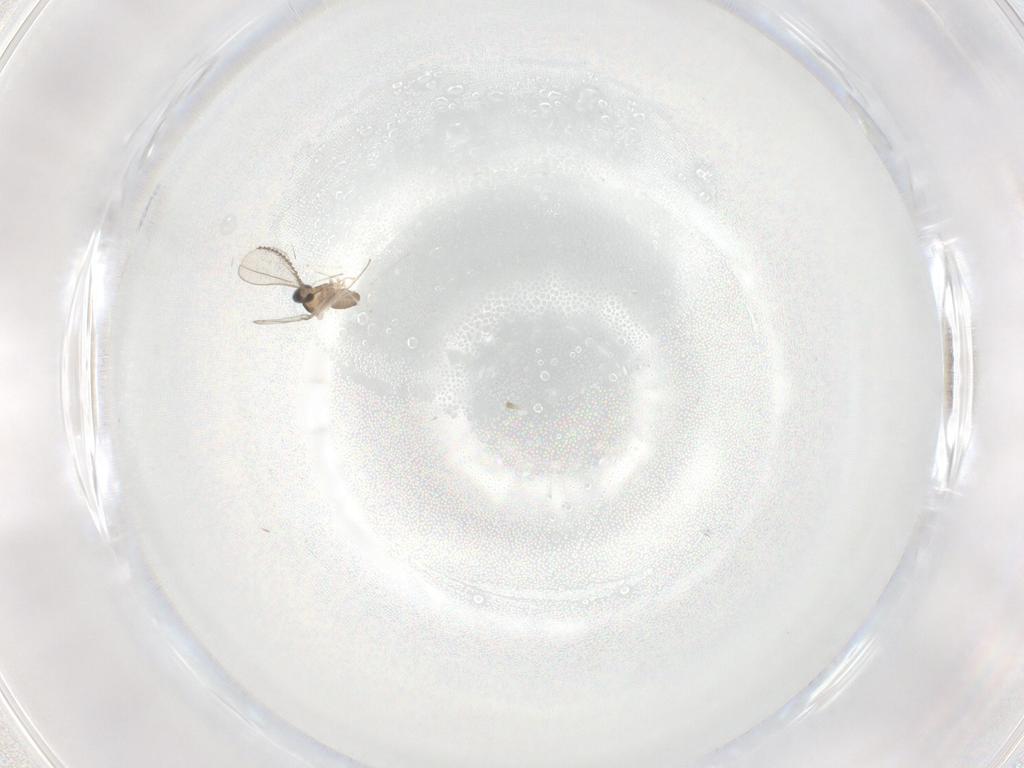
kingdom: Animalia
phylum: Arthropoda
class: Insecta
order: Diptera
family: Cecidomyiidae
